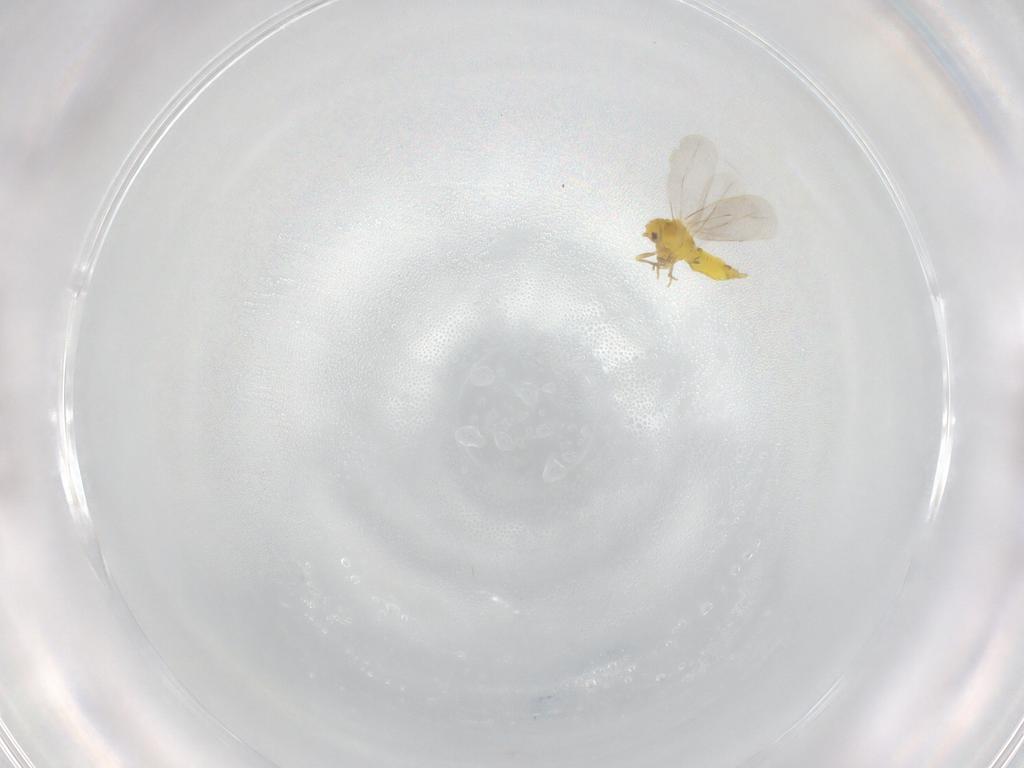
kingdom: Animalia
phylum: Arthropoda
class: Insecta
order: Hemiptera
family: Aleyrodidae
